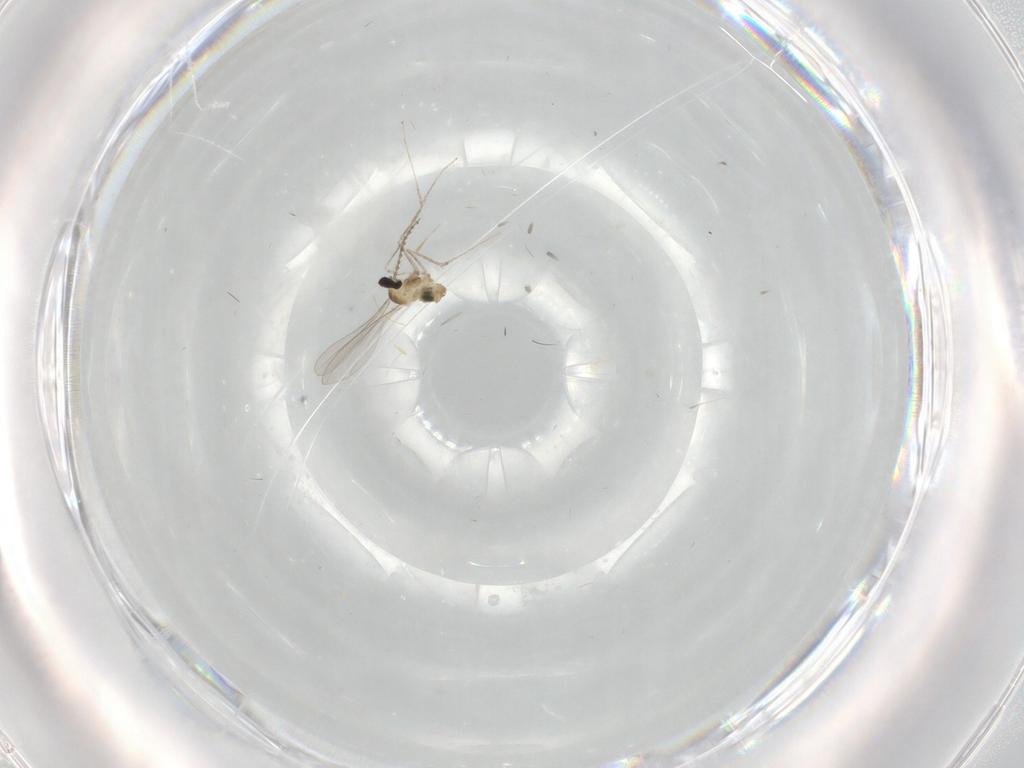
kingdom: Animalia
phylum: Arthropoda
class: Insecta
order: Diptera
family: Cecidomyiidae
